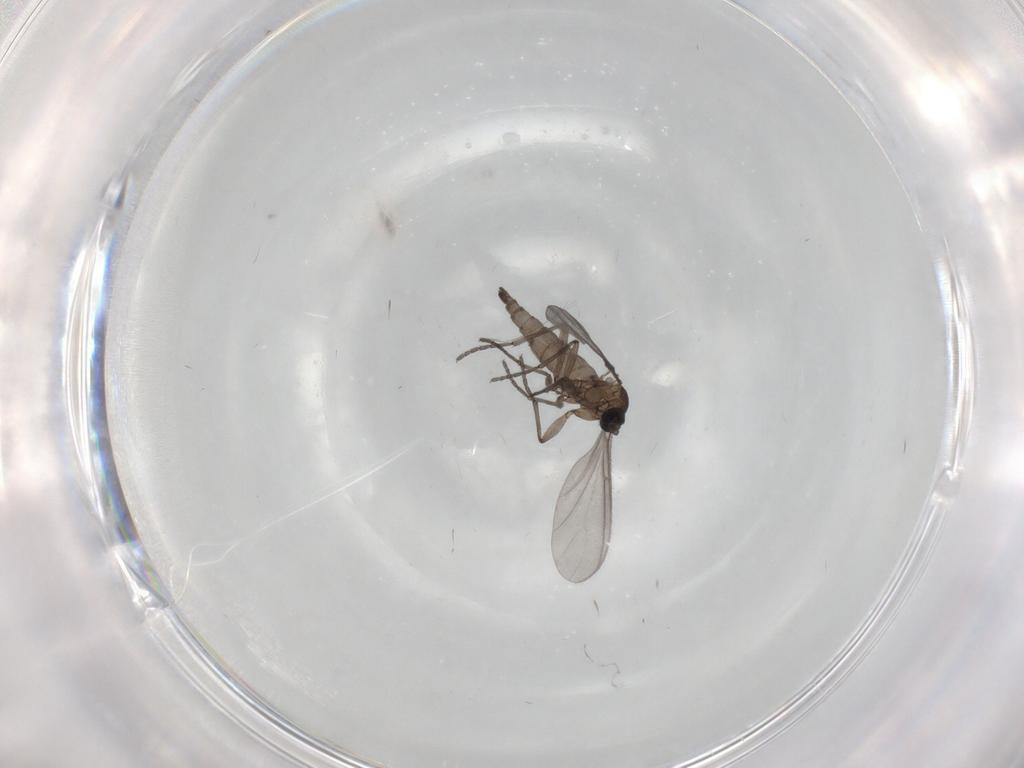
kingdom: Animalia
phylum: Arthropoda
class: Insecta
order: Diptera
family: Sciaridae
